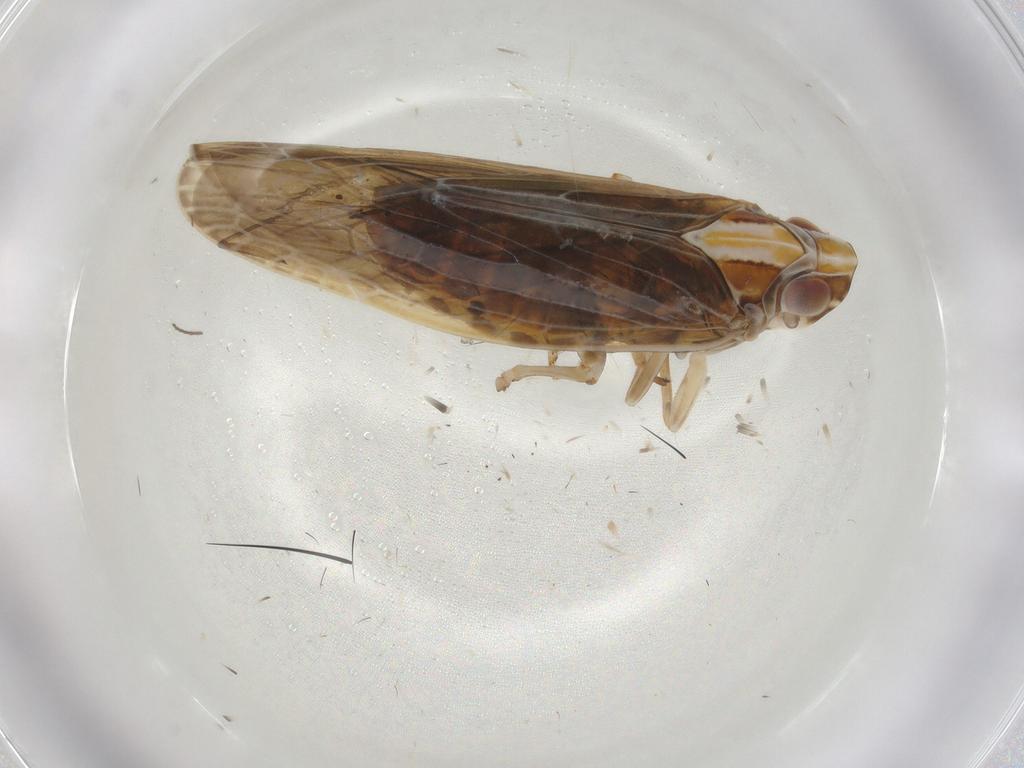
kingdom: Animalia
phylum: Arthropoda
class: Insecta
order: Hemiptera
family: Achilidae
